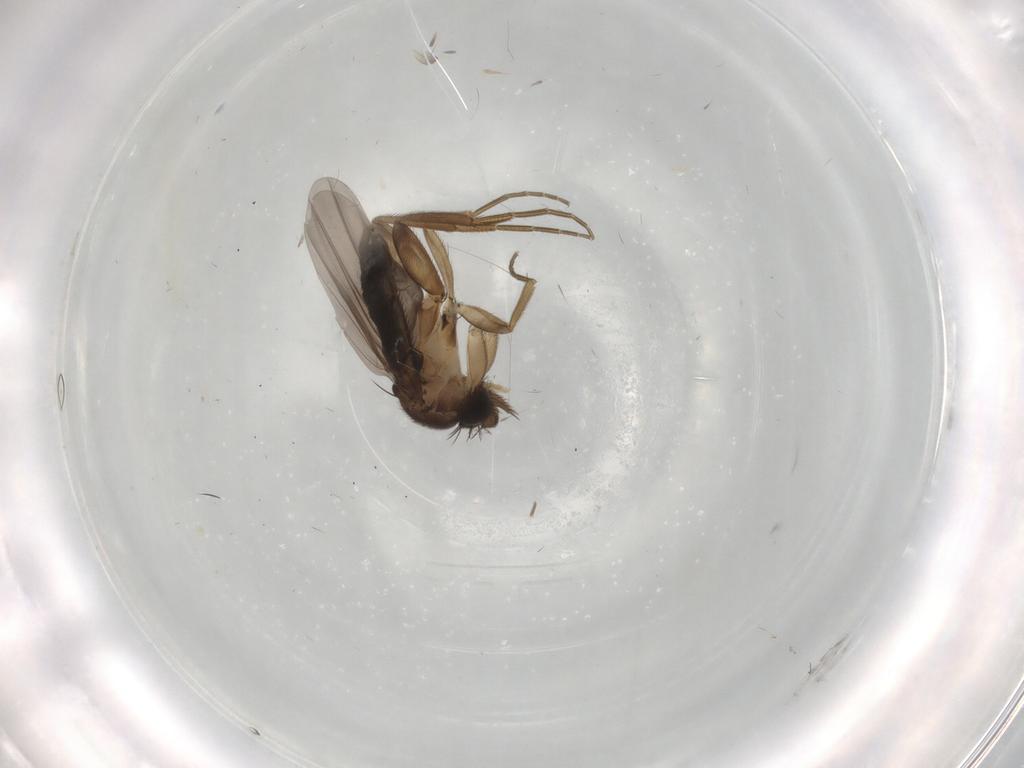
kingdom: Animalia
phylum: Arthropoda
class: Insecta
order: Diptera
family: Phoridae
